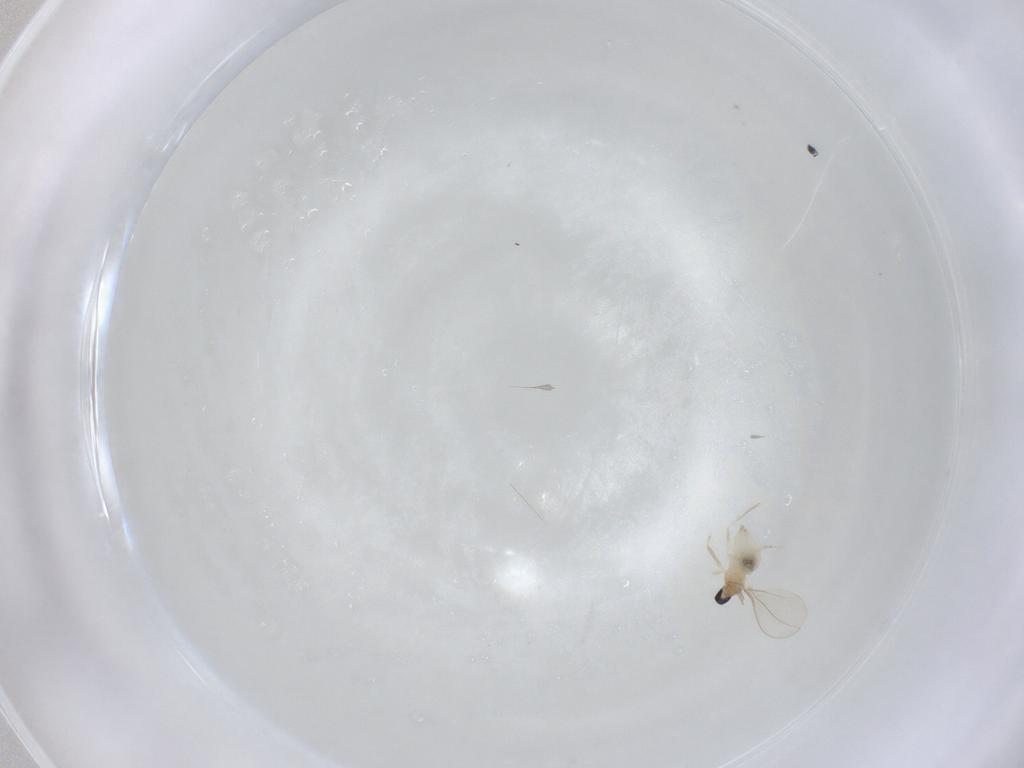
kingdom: Animalia
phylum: Arthropoda
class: Insecta
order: Diptera
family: Cecidomyiidae
